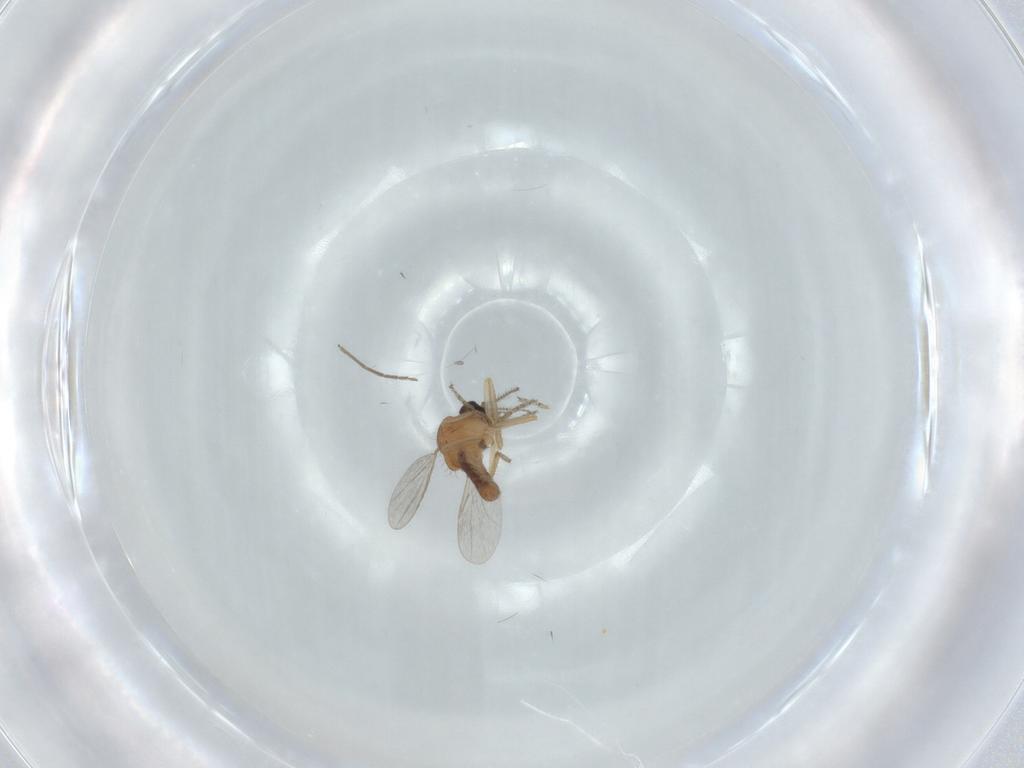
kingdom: Animalia
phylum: Arthropoda
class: Insecta
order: Diptera
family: Ceratopogonidae
